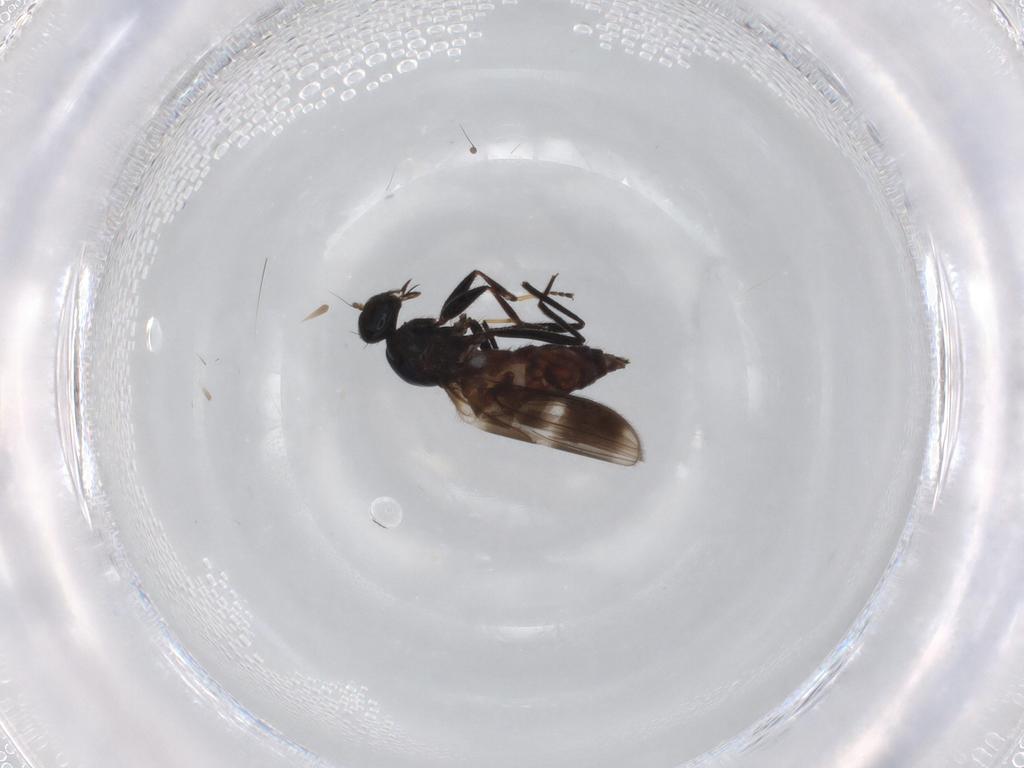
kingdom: Animalia
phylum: Arthropoda
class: Insecta
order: Diptera
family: Hybotidae
